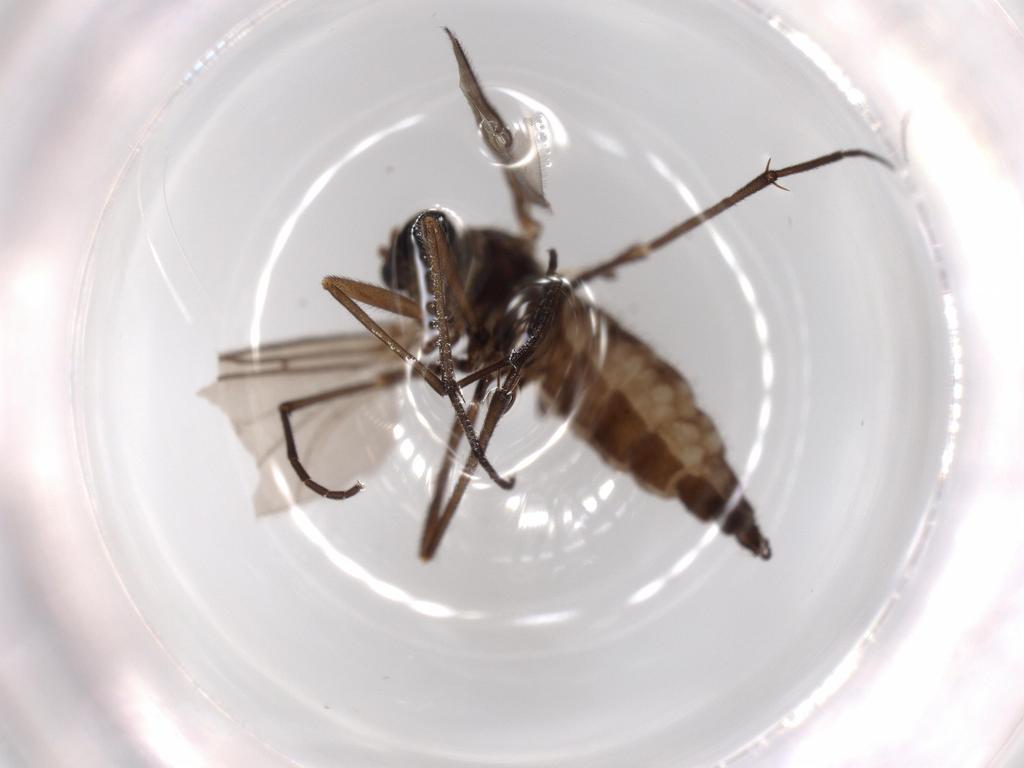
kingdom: Animalia
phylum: Arthropoda
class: Insecta
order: Diptera
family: Sciaridae
